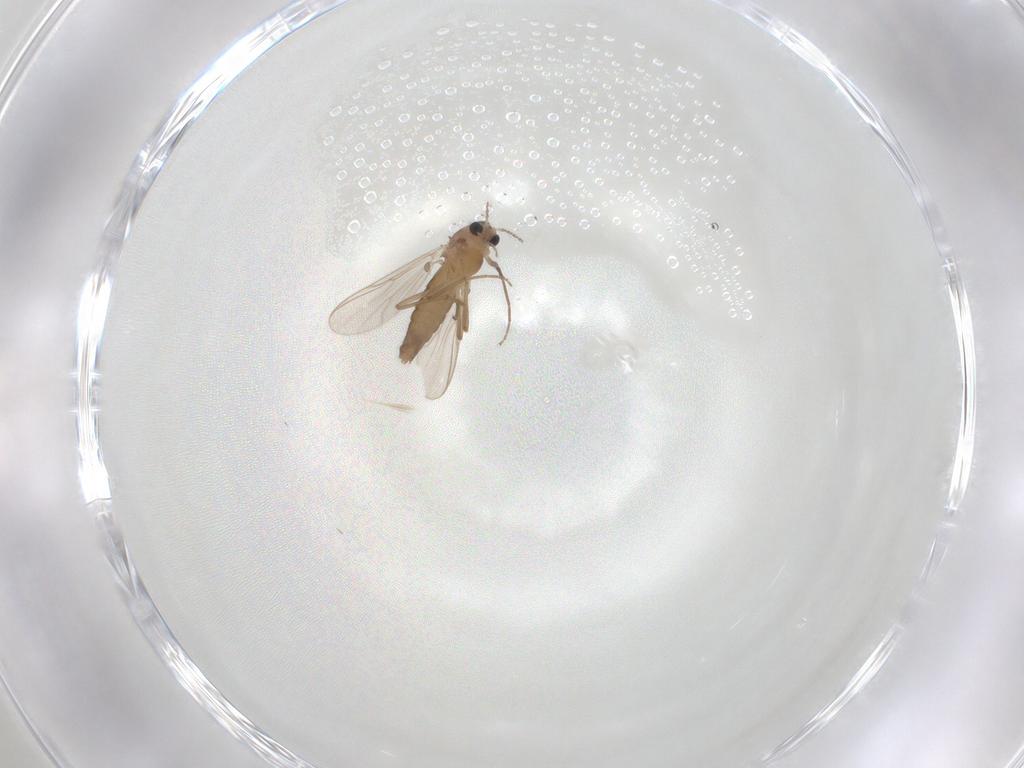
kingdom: Animalia
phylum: Arthropoda
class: Insecta
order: Diptera
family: Chironomidae
